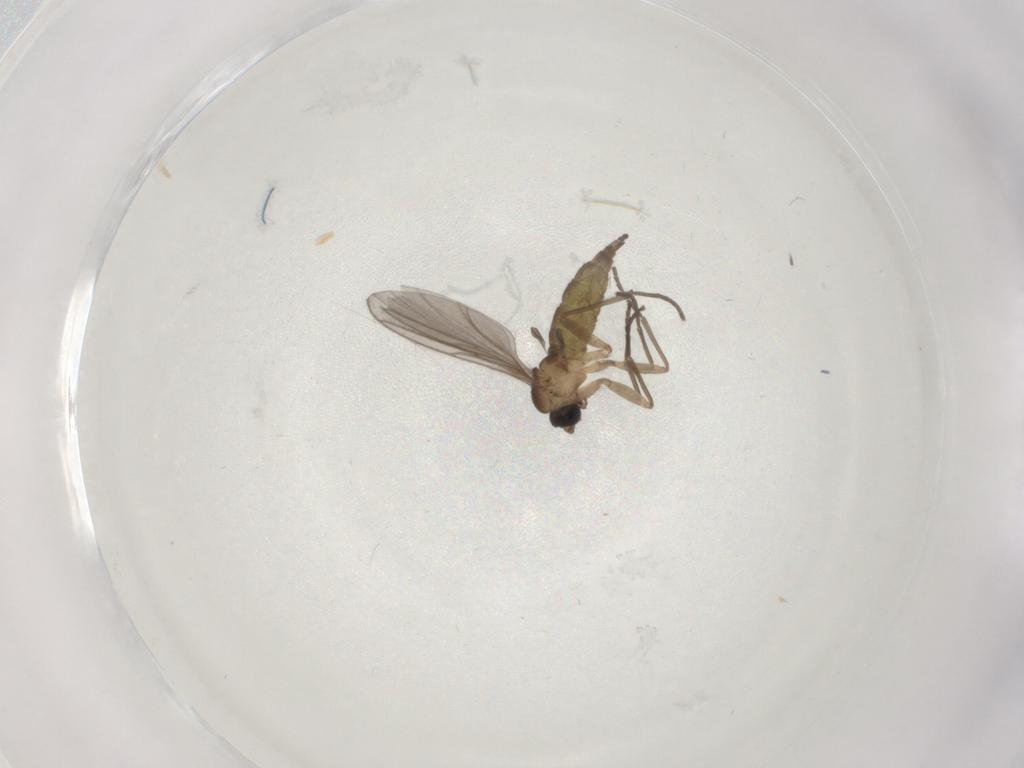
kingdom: Animalia
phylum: Arthropoda
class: Insecta
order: Diptera
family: Sciaridae
